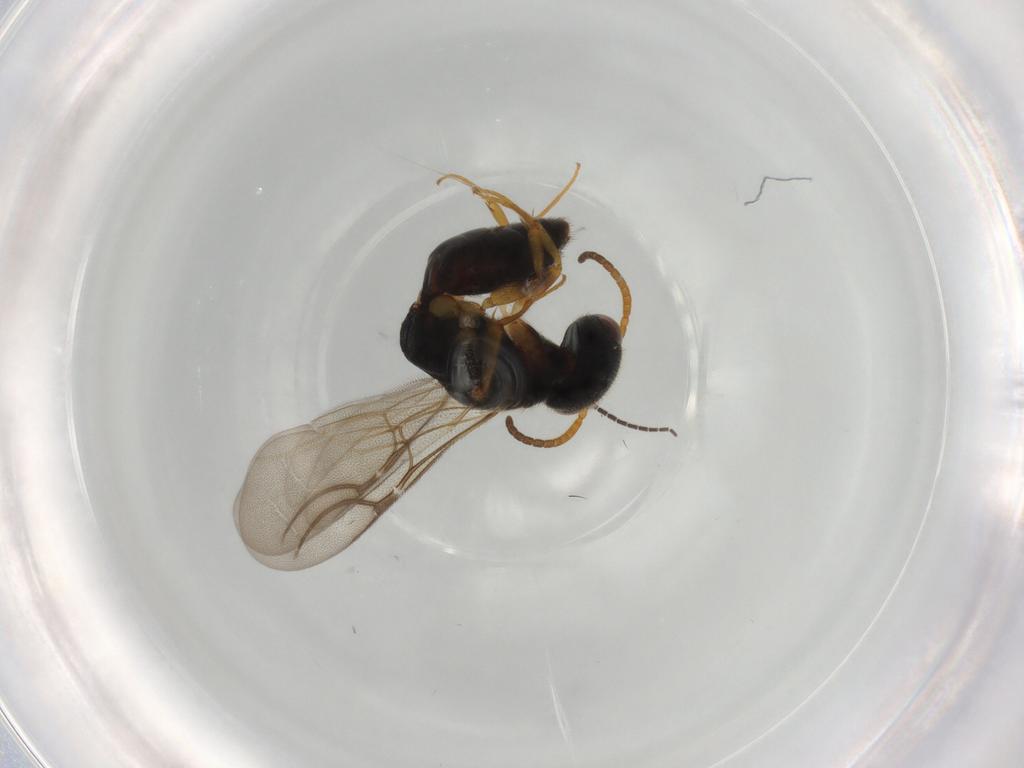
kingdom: Animalia
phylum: Arthropoda
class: Insecta
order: Hymenoptera
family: Bethylidae
